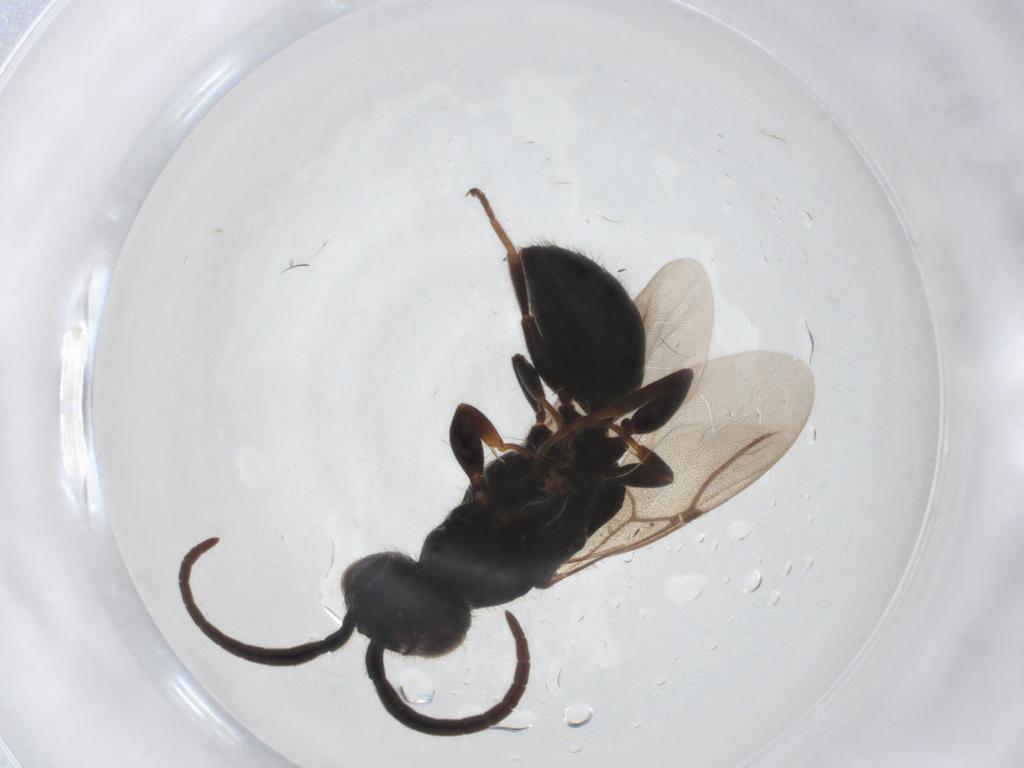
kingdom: Animalia
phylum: Arthropoda
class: Insecta
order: Hymenoptera
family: Bethylidae
